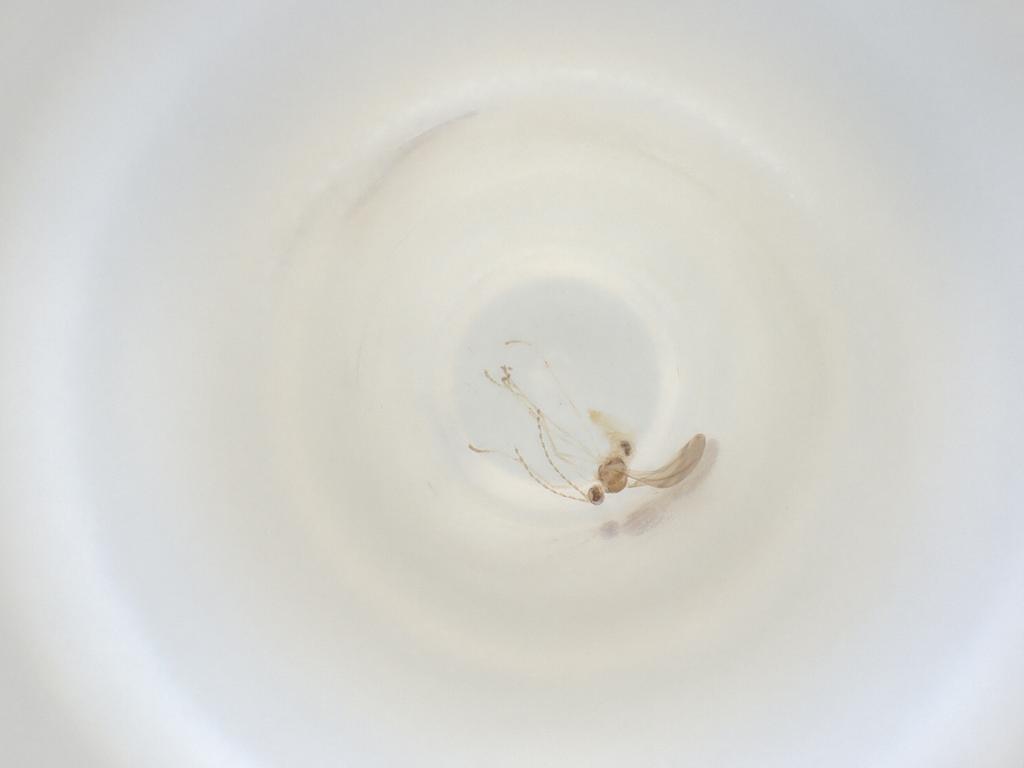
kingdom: Animalia
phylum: Arthropoda
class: Insecta
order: Diptera
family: Cecidomyiidae
